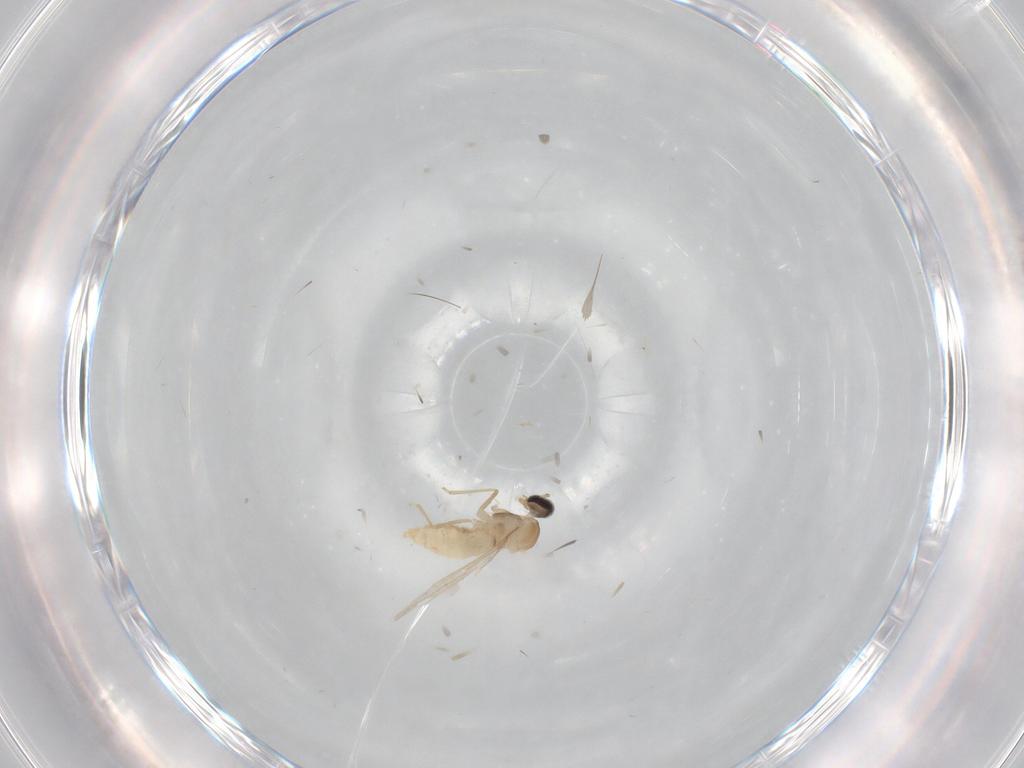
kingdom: Animalia
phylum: Arthropoda
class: Insecta
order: Diptera
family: Cecidomyiidae
